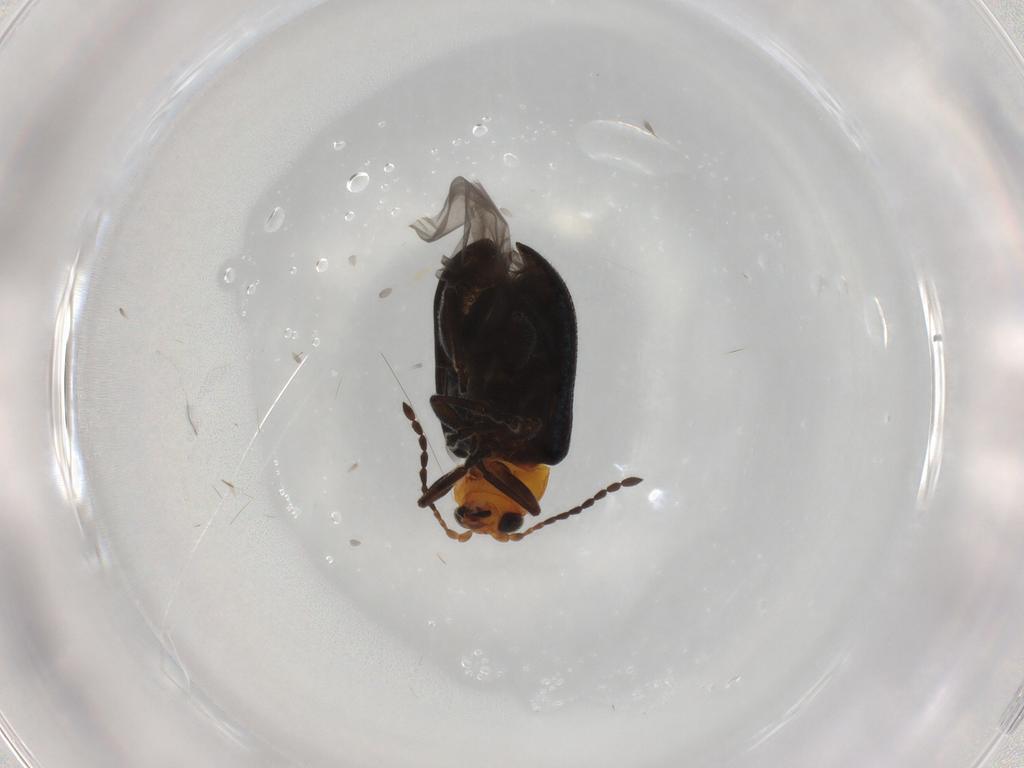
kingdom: Animalia
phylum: Arthropoda
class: Insecta
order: Coleoptera
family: Chrysomelidae
